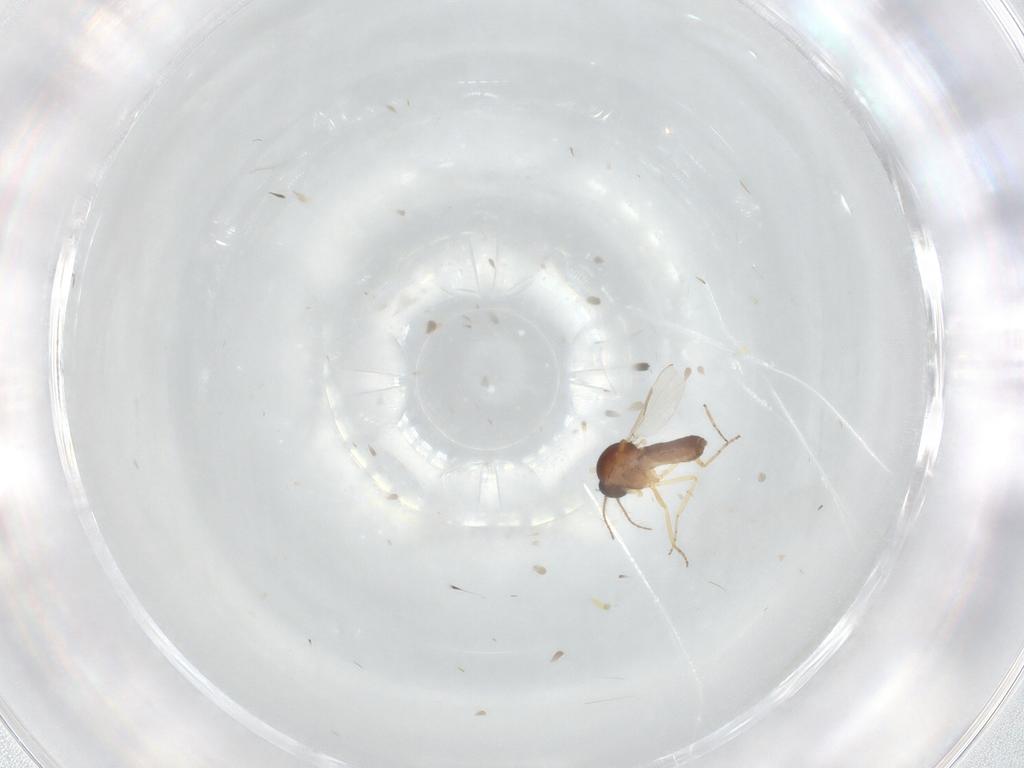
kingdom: Animalia
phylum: Arthropoda
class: Insecta
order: Diptera
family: Ceratopogonidae
